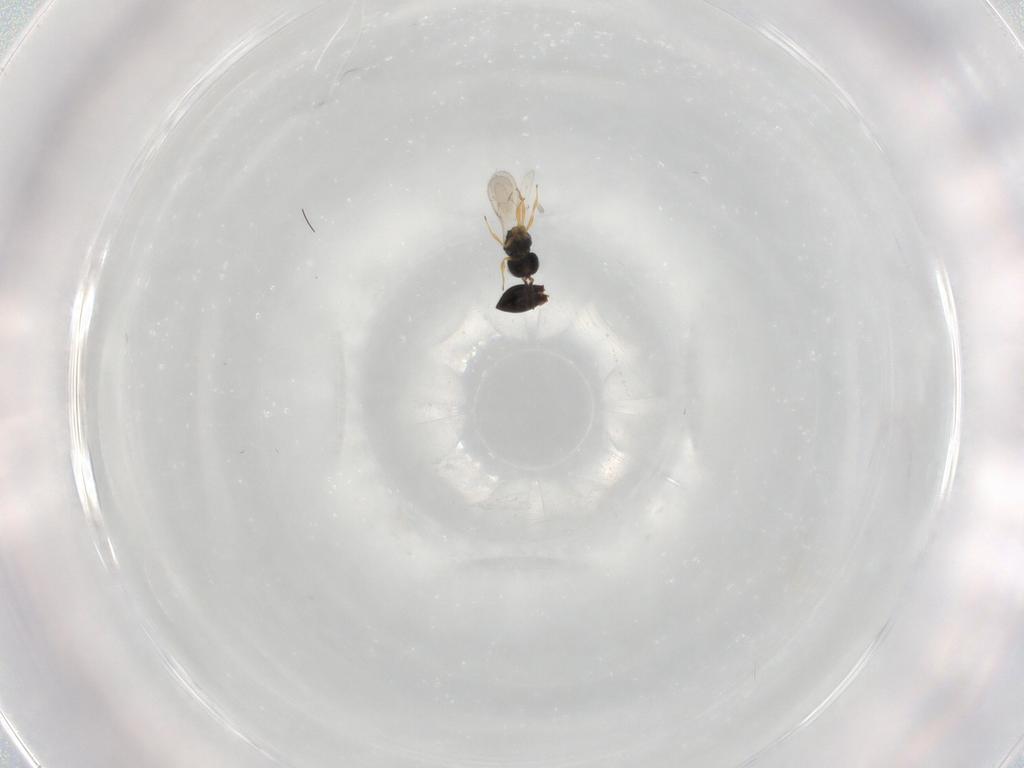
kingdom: Animalia
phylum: Arthropoda
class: Insecta
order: Hymenoptera
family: Scelionidae
